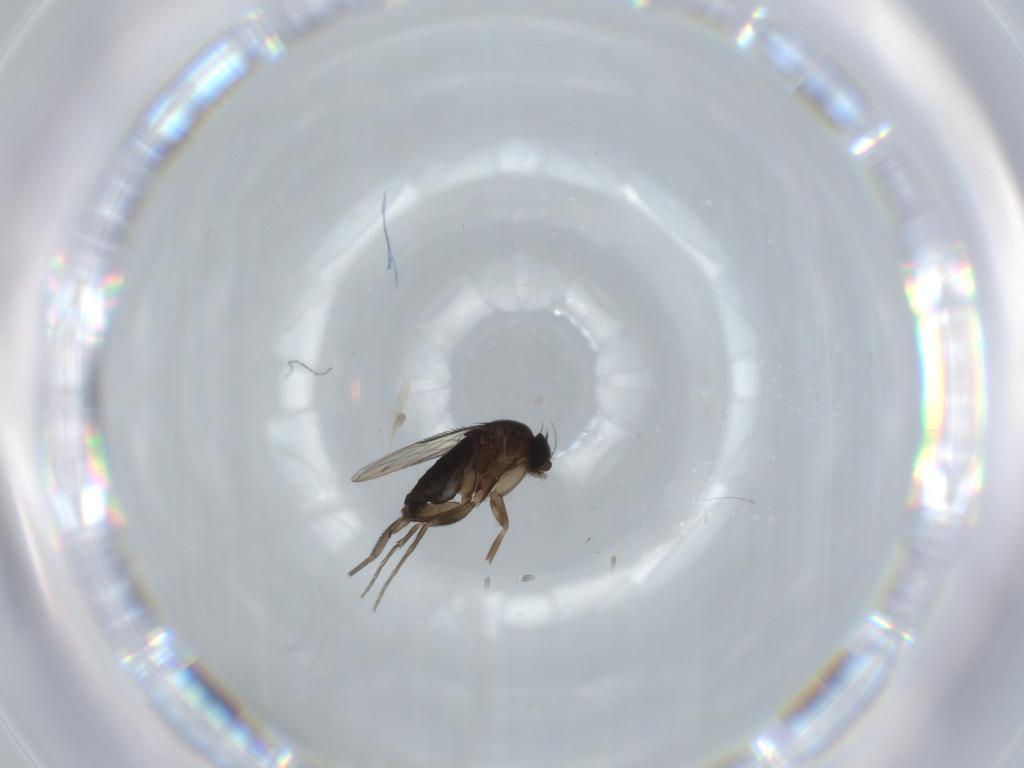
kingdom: Animalia
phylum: Arthropoda
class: Insecta
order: Diptera
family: Phoridae
